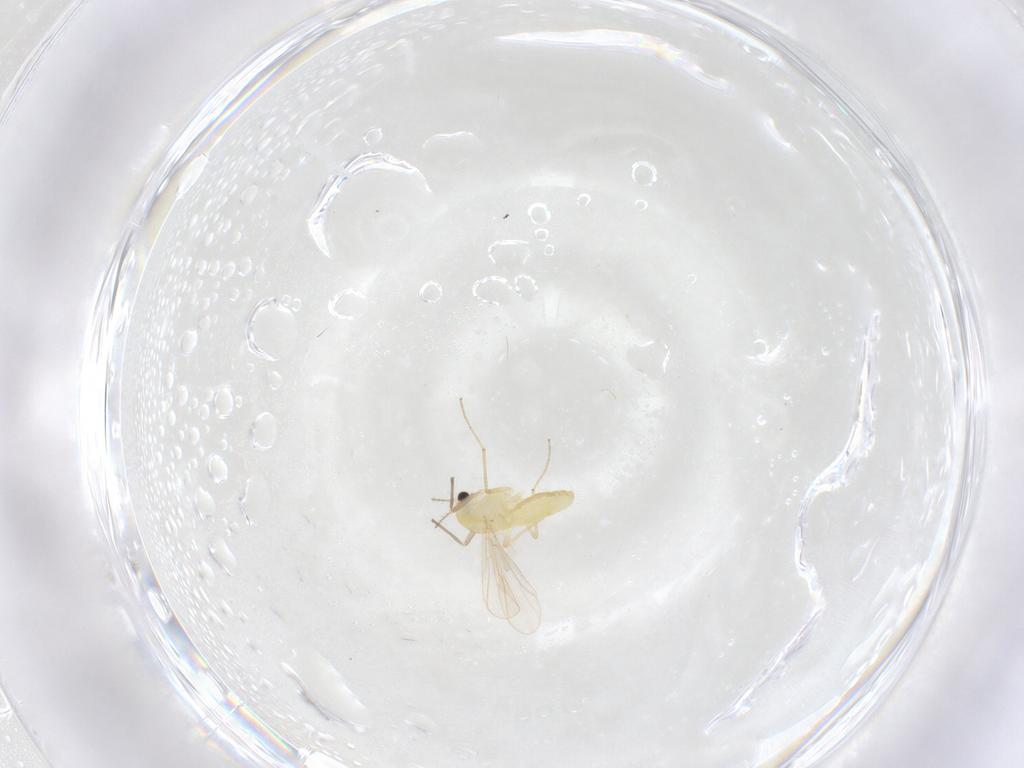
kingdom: Animalia
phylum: Arthropoda
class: Insecta
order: Diptera
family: Chironomidae
